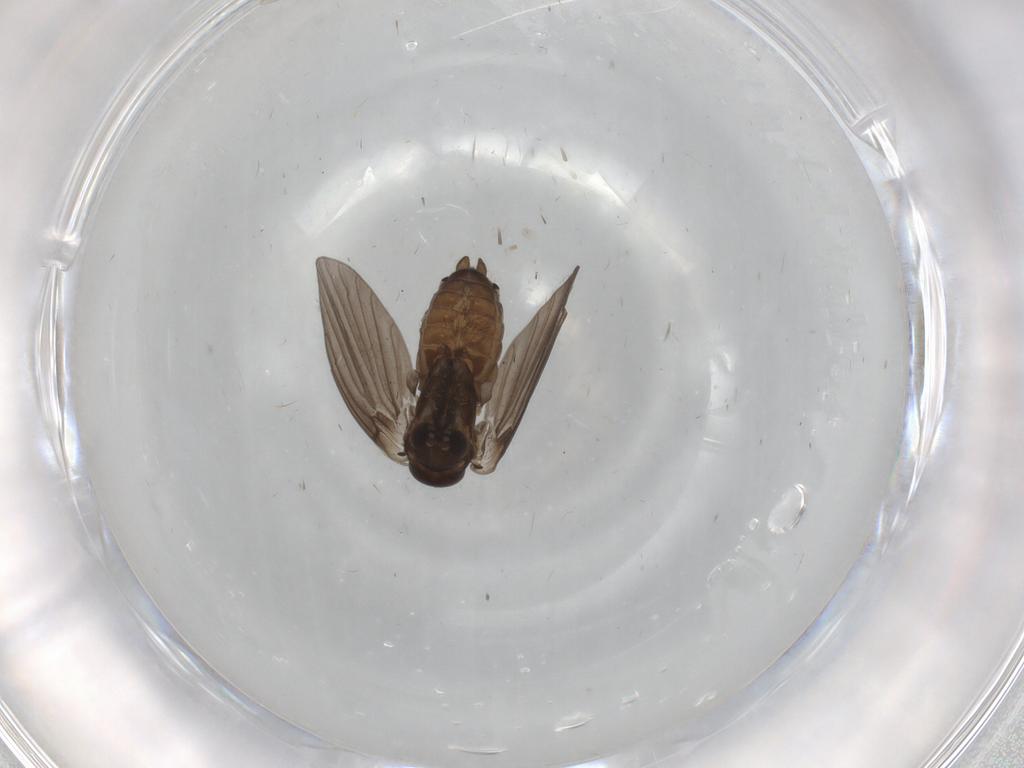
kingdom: Animalia
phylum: Arthropoda
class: Insecta
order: Diptera
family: Cecidomyiidae
